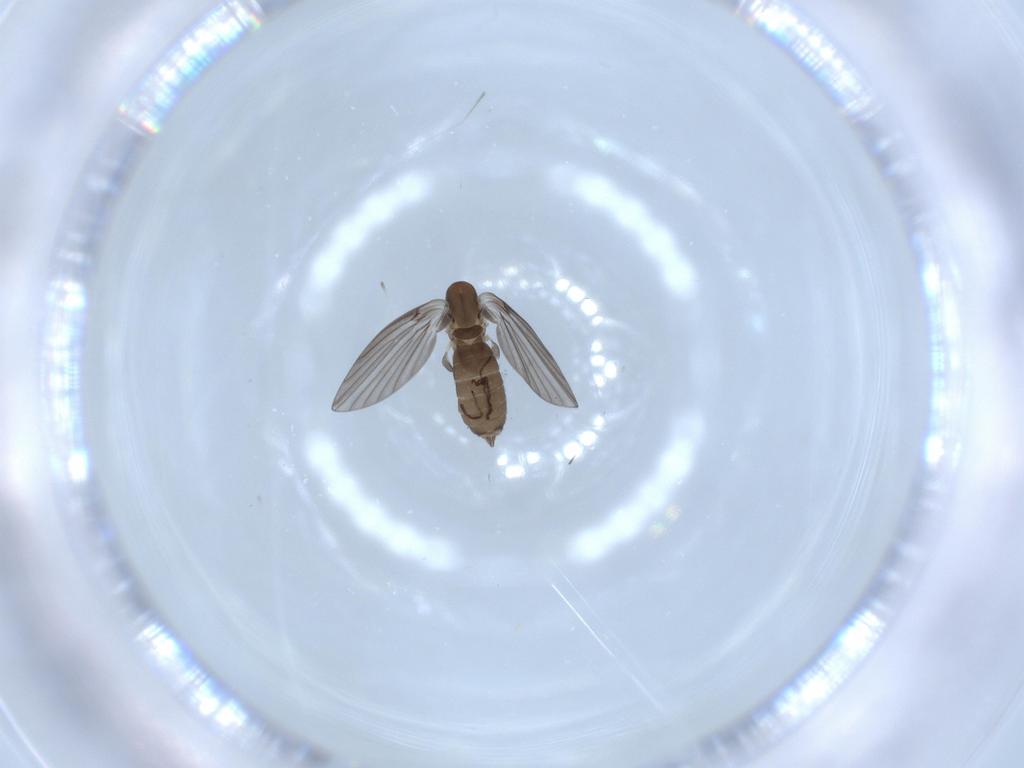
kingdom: Animalia
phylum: Arthropoda
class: Insecta
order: Diptera
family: Psychodidae
